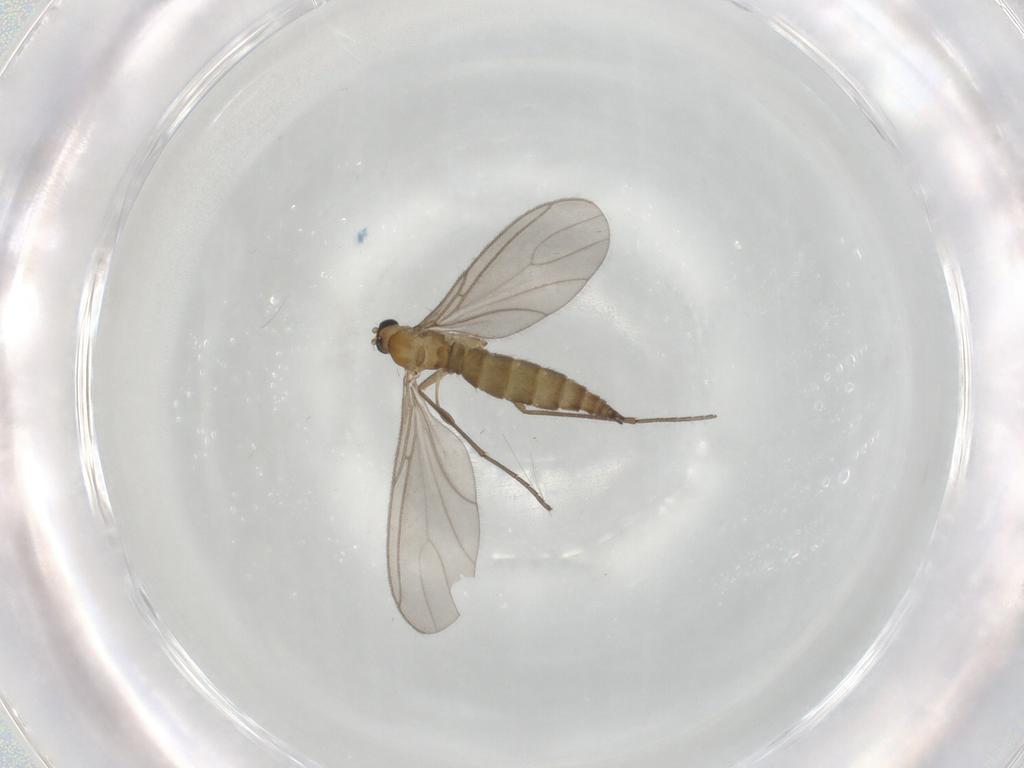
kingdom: Animalia
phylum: Arthropoda
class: Insecta
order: Diptera
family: Sciaridae
